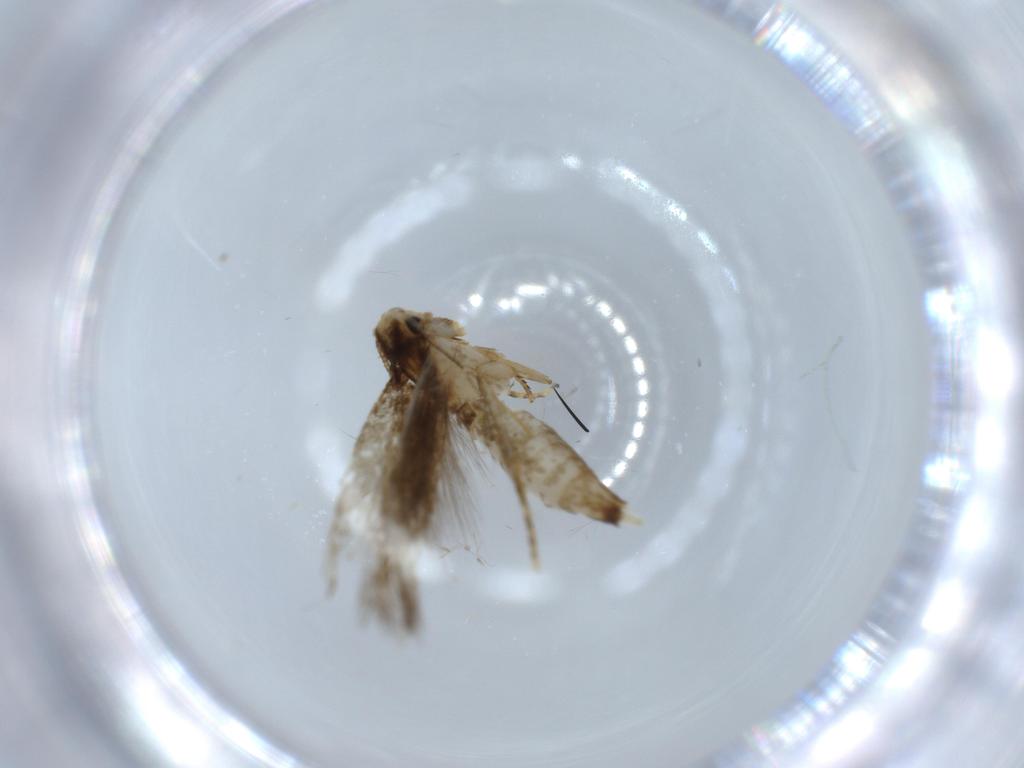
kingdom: Animalia
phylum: Arthropoda
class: Insecta
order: Lepidoptera
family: Tineidae
